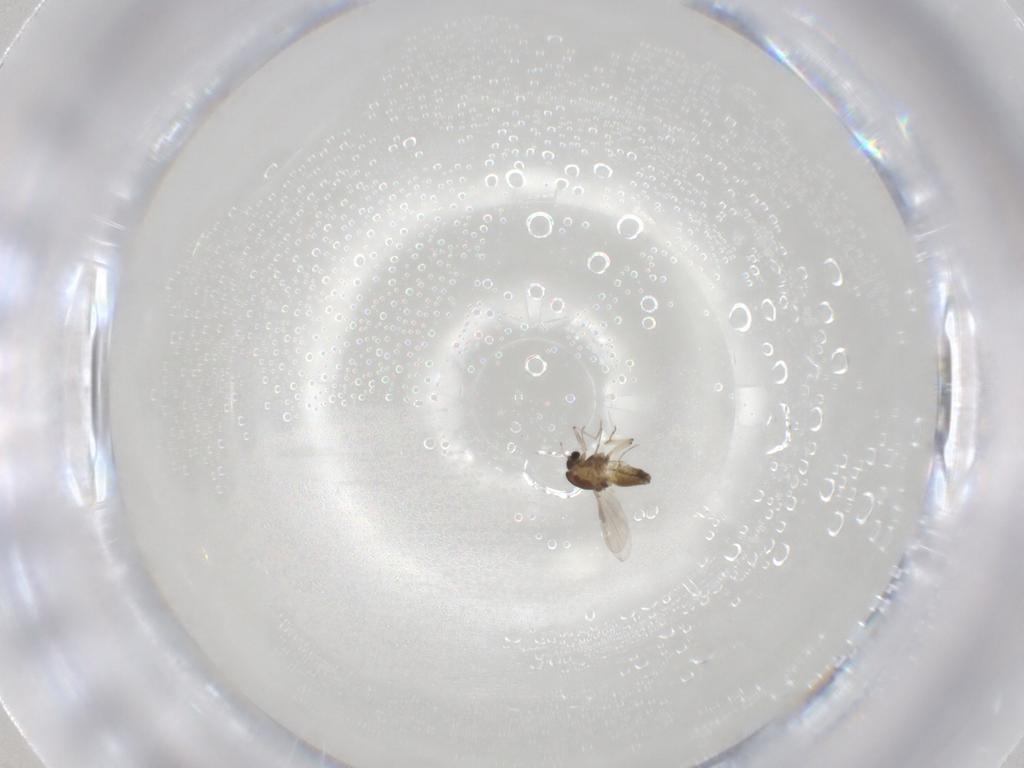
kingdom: Animalia
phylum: Arthropoda
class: Insecta
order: Diptera
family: Chironomidae
